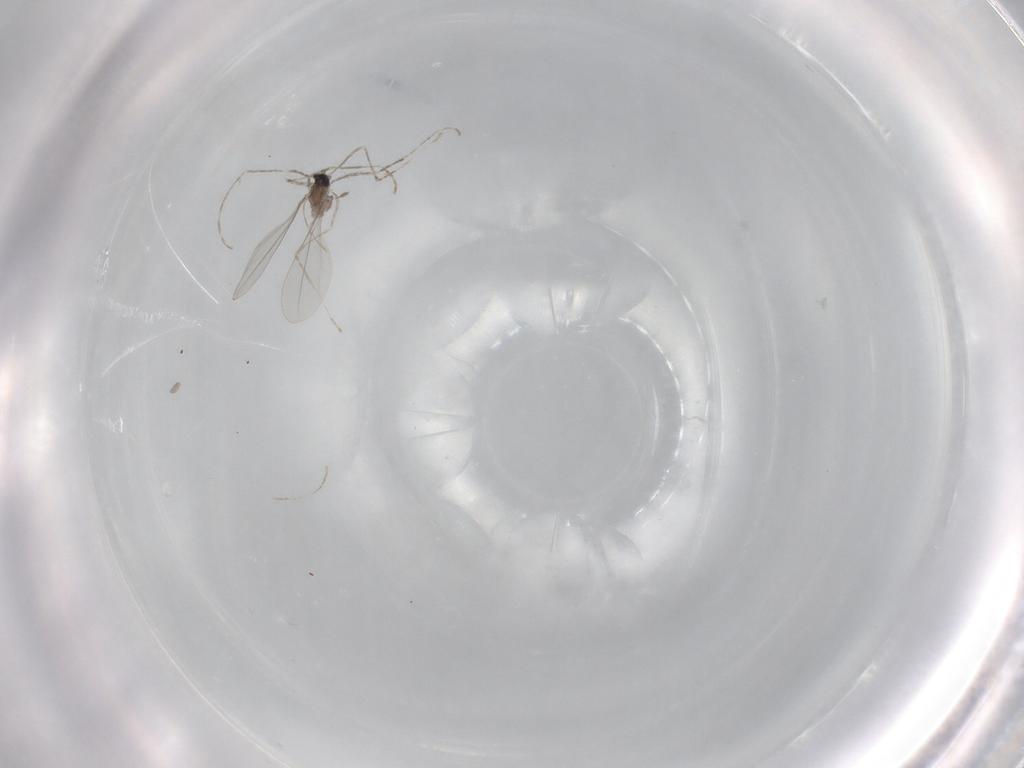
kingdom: Animalia
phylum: Arthropoda
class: Insecta
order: Diptera
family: Cecidomyiidae
